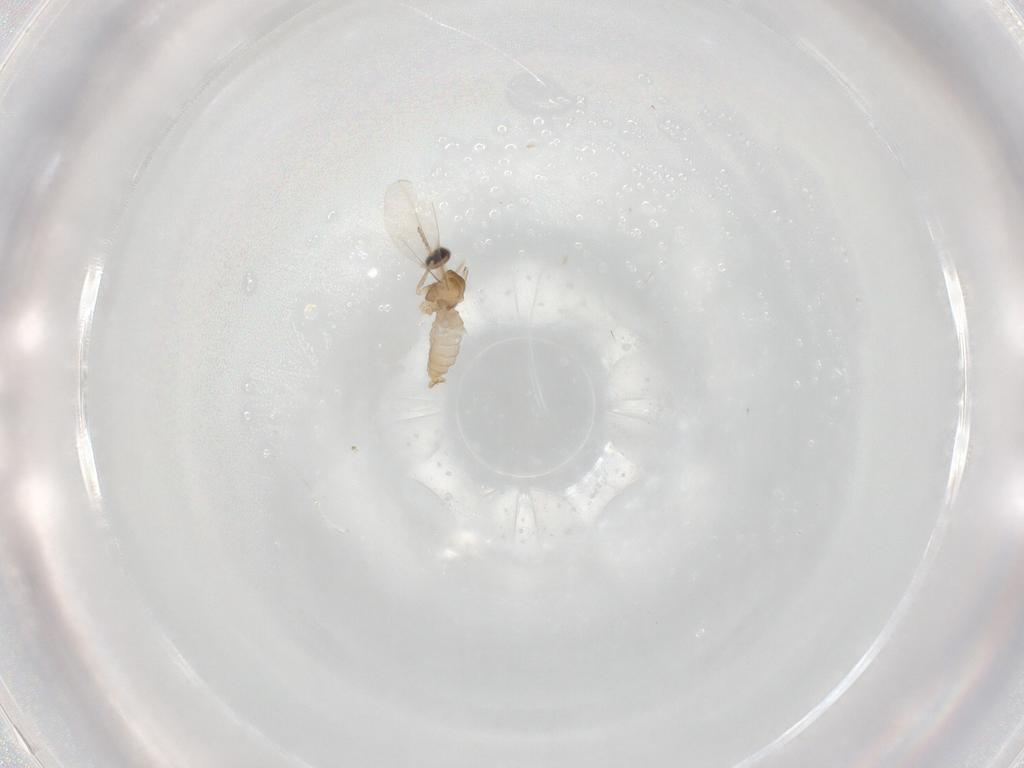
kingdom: Animalia
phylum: Arthropoda
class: Insecta
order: Diptera
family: Cecidomyiidae
